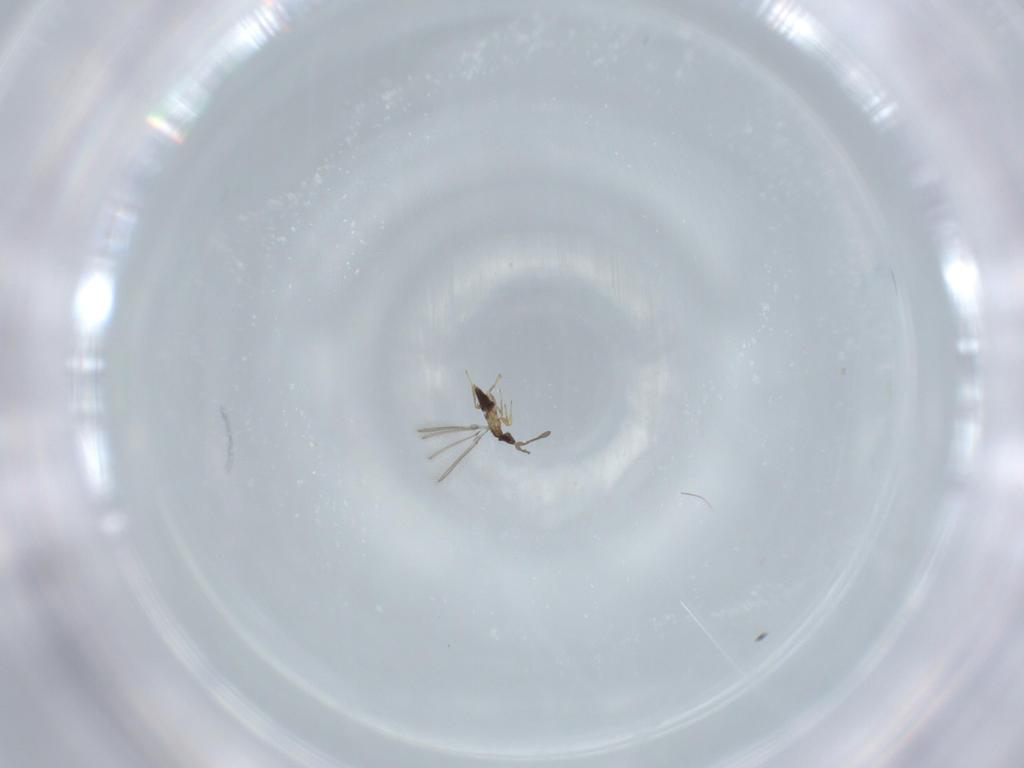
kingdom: Animalia
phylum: Arthropoda
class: Insecta
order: Hymenoptera
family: Mymaridae
